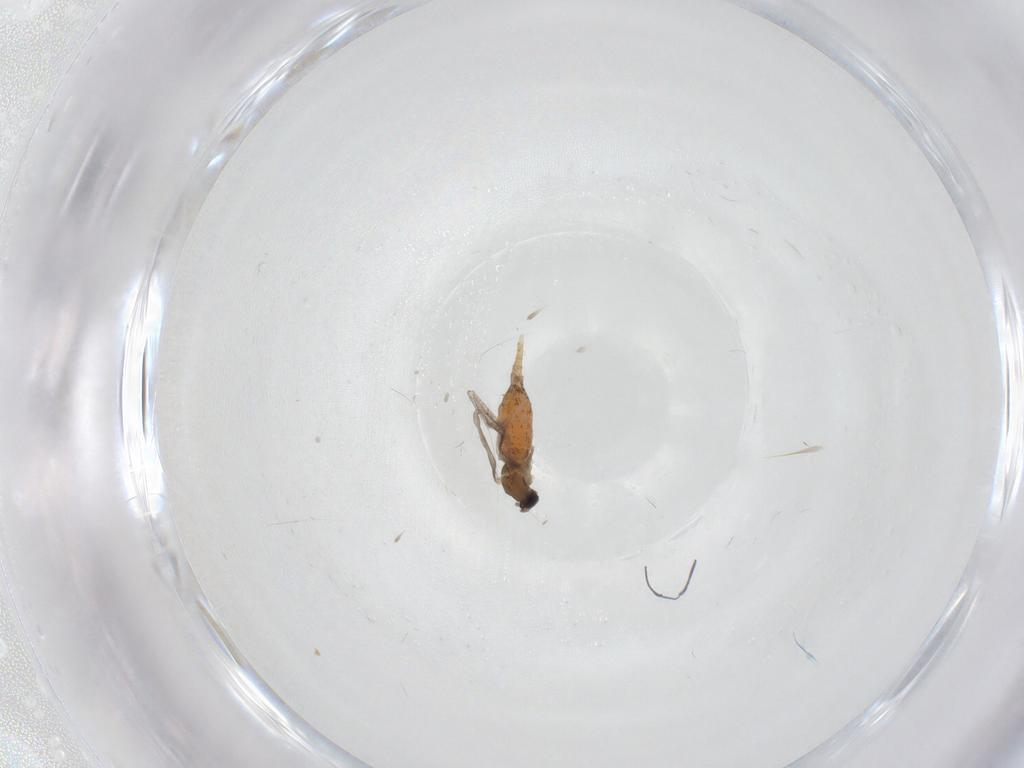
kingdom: Animalia
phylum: Arthropoda
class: Insecta
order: Diptera
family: Cecidomyiidae
